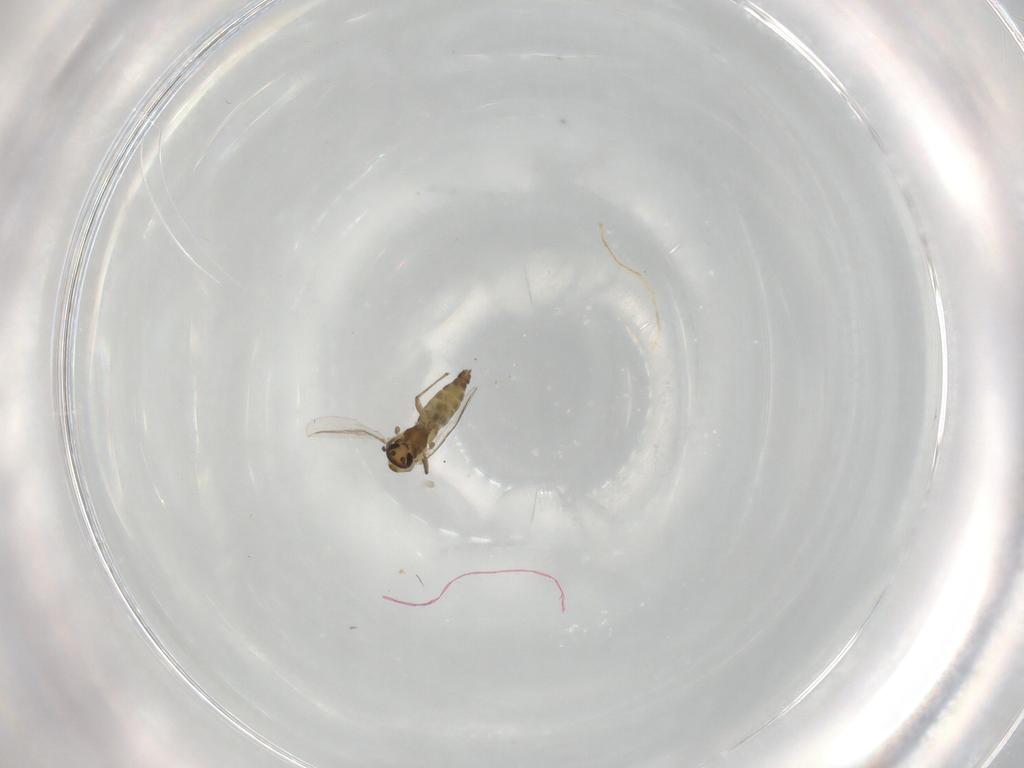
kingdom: Animalia
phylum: Arthropoda
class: Insecta
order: Diptera
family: Chironomidae
